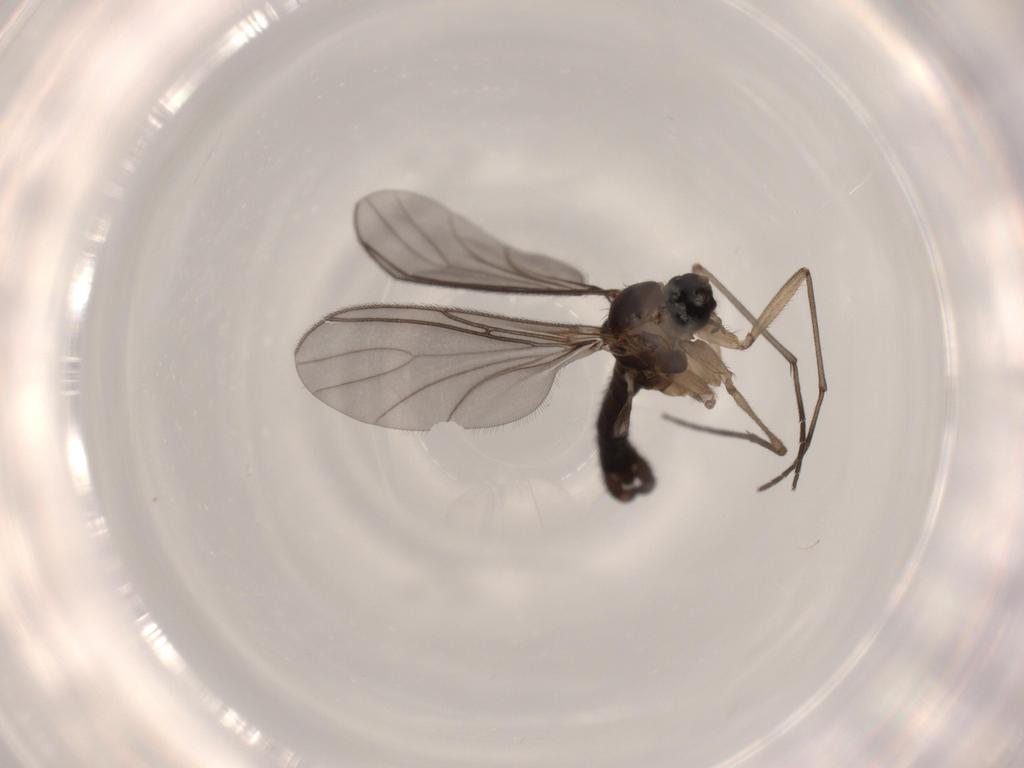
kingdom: Animalia
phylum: Arthropoda
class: Insecta
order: Diptera
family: Sciaridae
